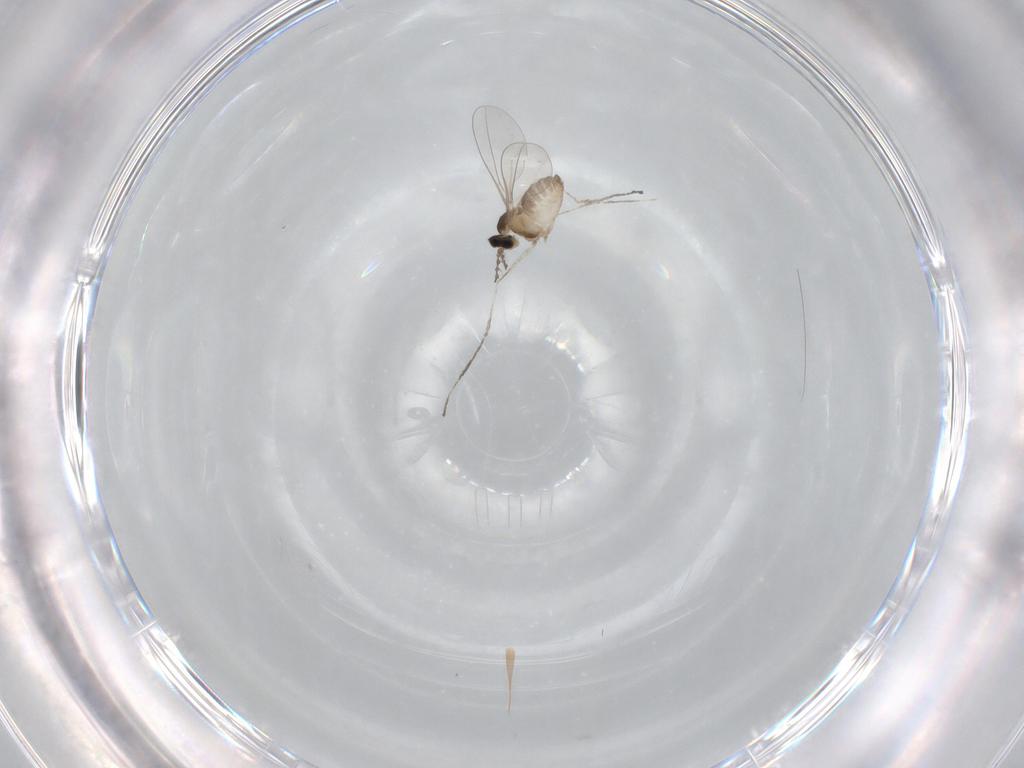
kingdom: Animalia
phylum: Arthropoda
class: Insecta
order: Diptera
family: Cecidomyiidae
